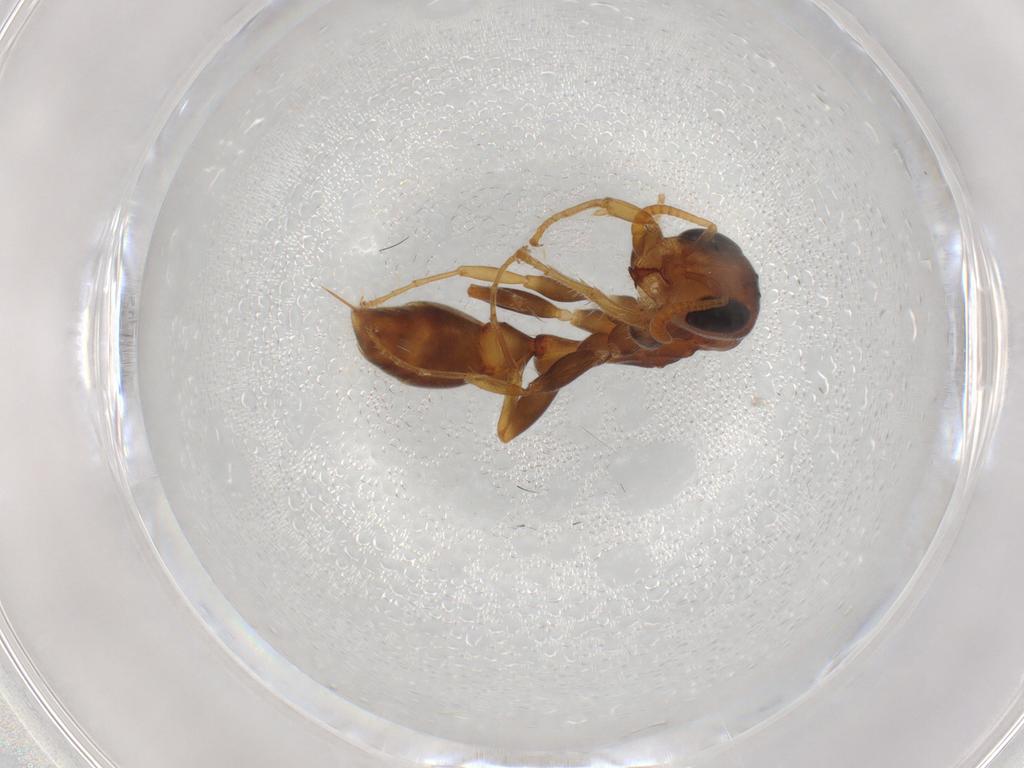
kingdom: Animalia
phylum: Arthropoda
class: Insecta
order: Hymenoptera
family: Formicidae
